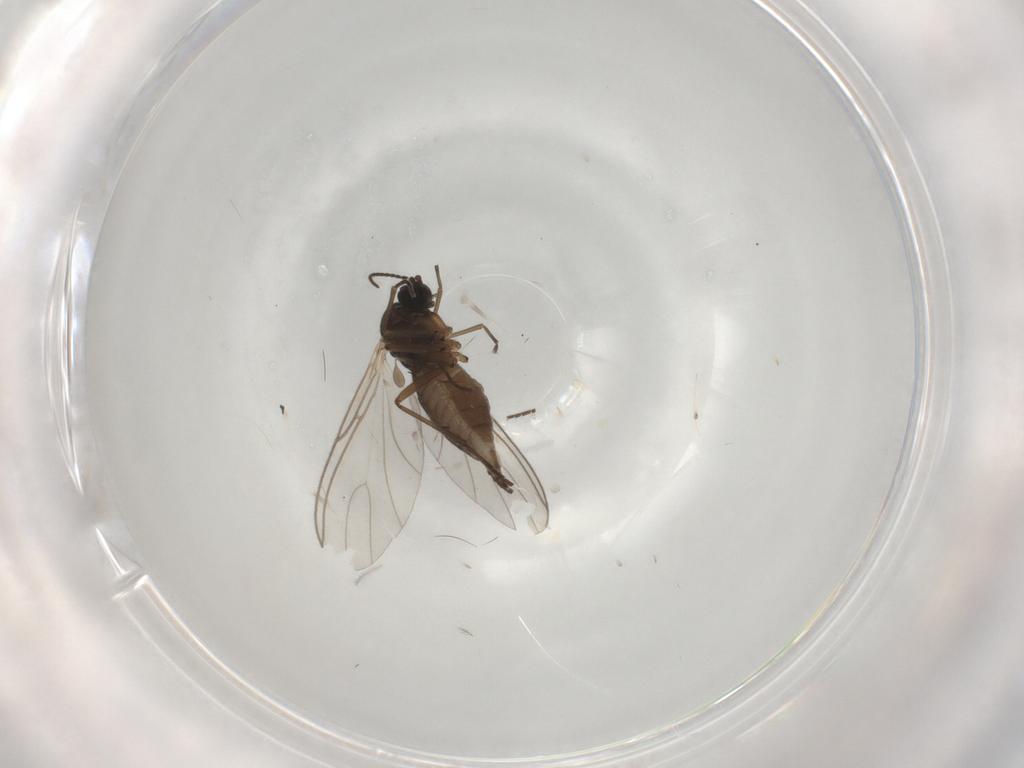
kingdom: Animalia
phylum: Arthropoda
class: Insecta
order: Diptera
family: Sciaridae
